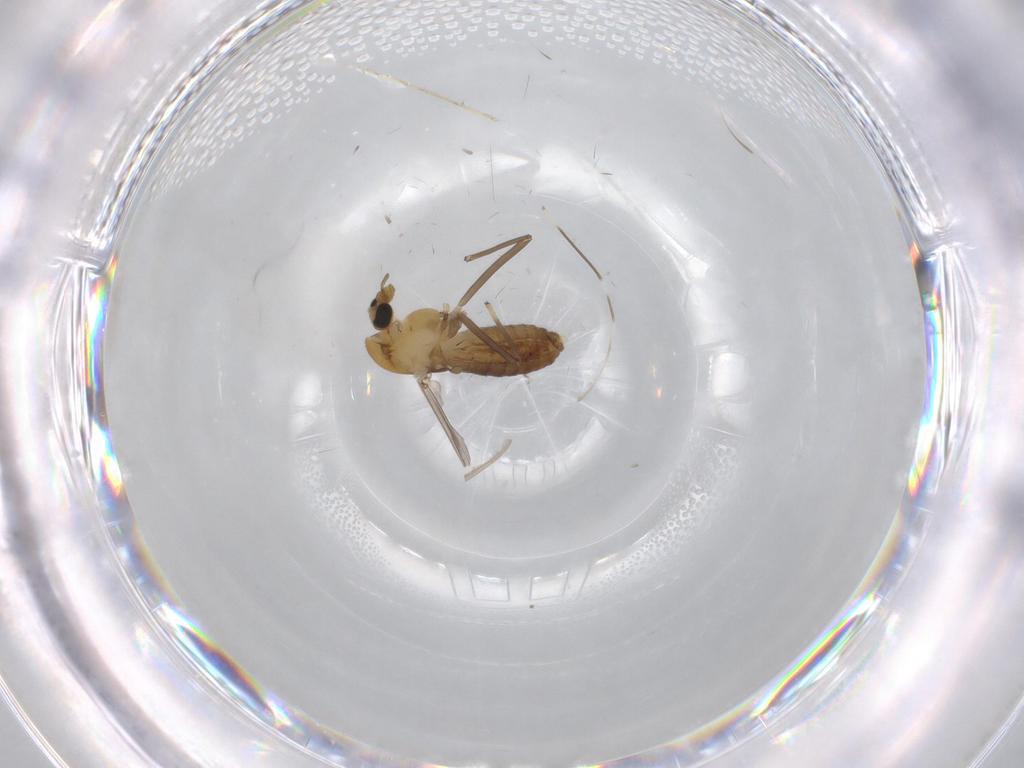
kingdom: Animalia
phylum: Arthropoda
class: Insecta
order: Diptera
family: Chironomidae
